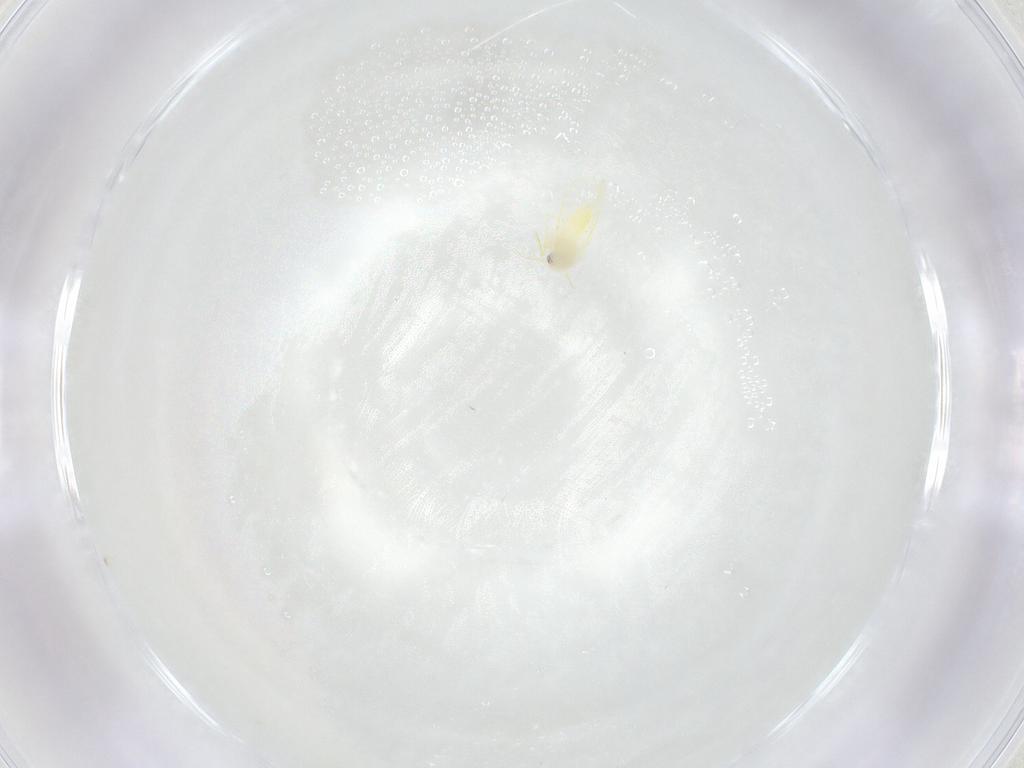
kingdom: Animalia
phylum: Arthropoda
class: Insecta
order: Hemiptera
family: Aleyrodidae
